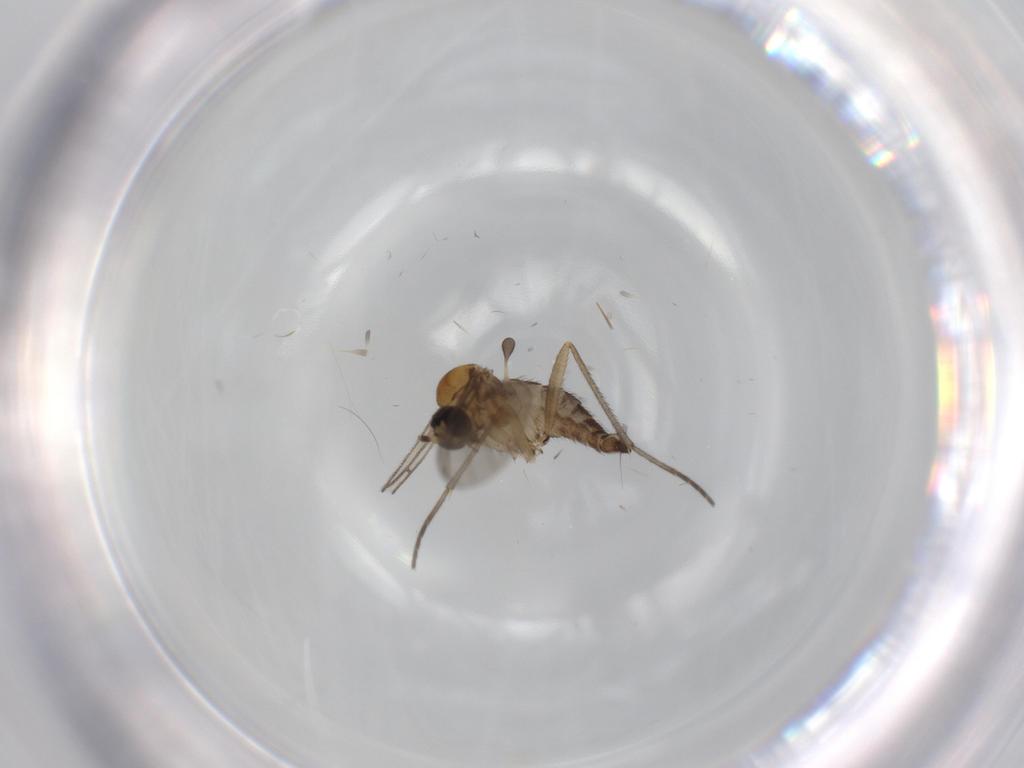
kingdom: Animalia
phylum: Arthropoda
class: Insecta
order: Diptera
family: Sciaridae
